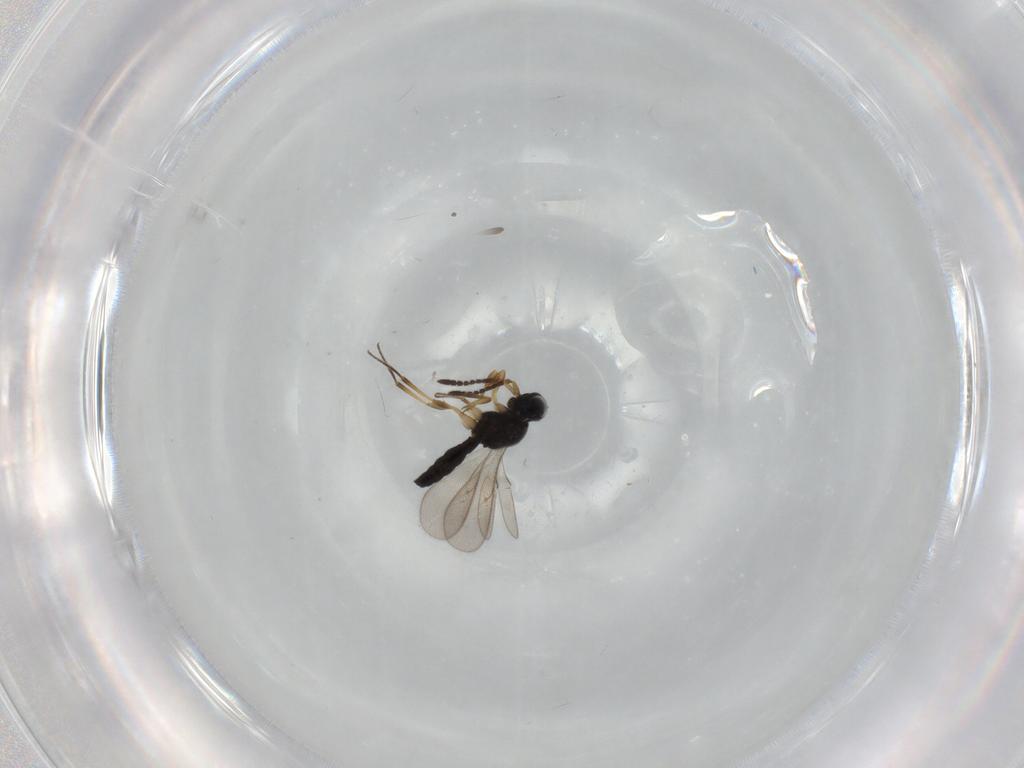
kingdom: Animalia
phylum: Arthropoda
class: Insecta
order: Hymenoptera
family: Scelionidae
